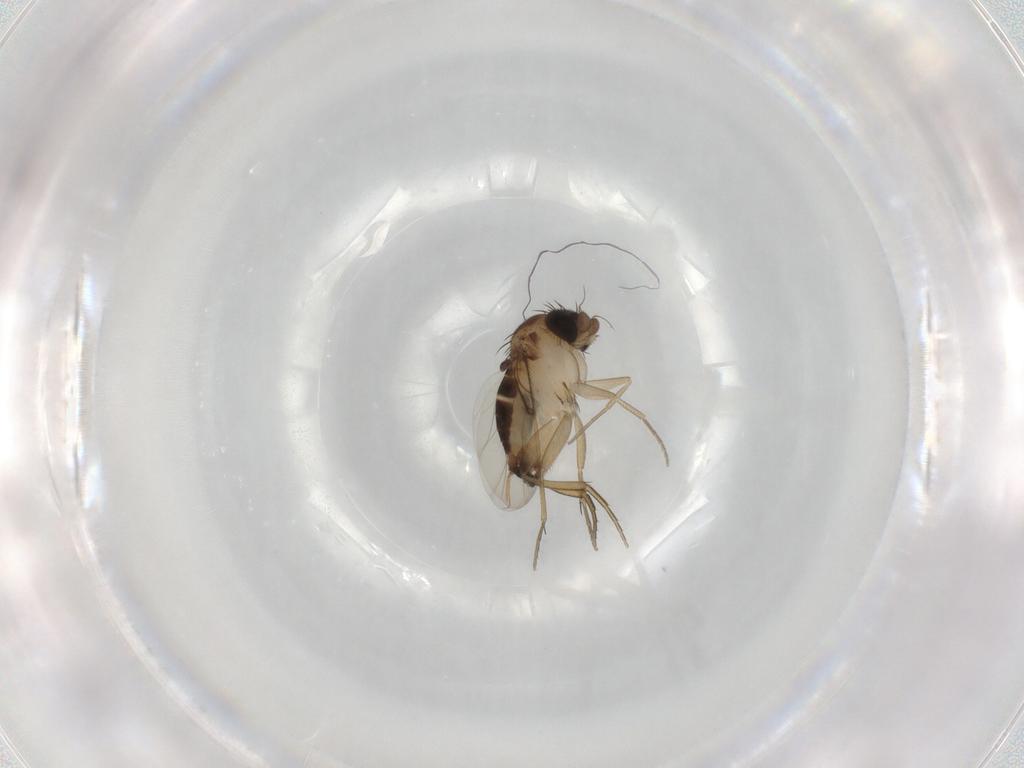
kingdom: Animalia
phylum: Arthropoda
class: Insecta
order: Diptera
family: Phoridae
